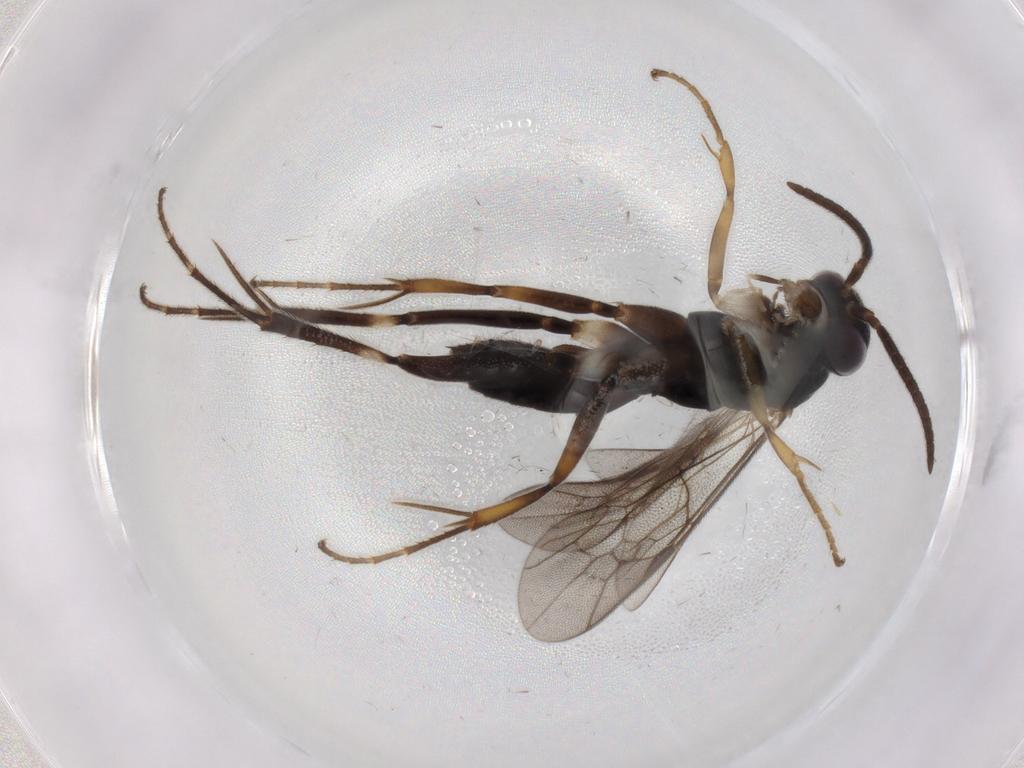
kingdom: Animalia
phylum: Arthropoda
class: Insecta
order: Hymenoptera
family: Pompilidae
